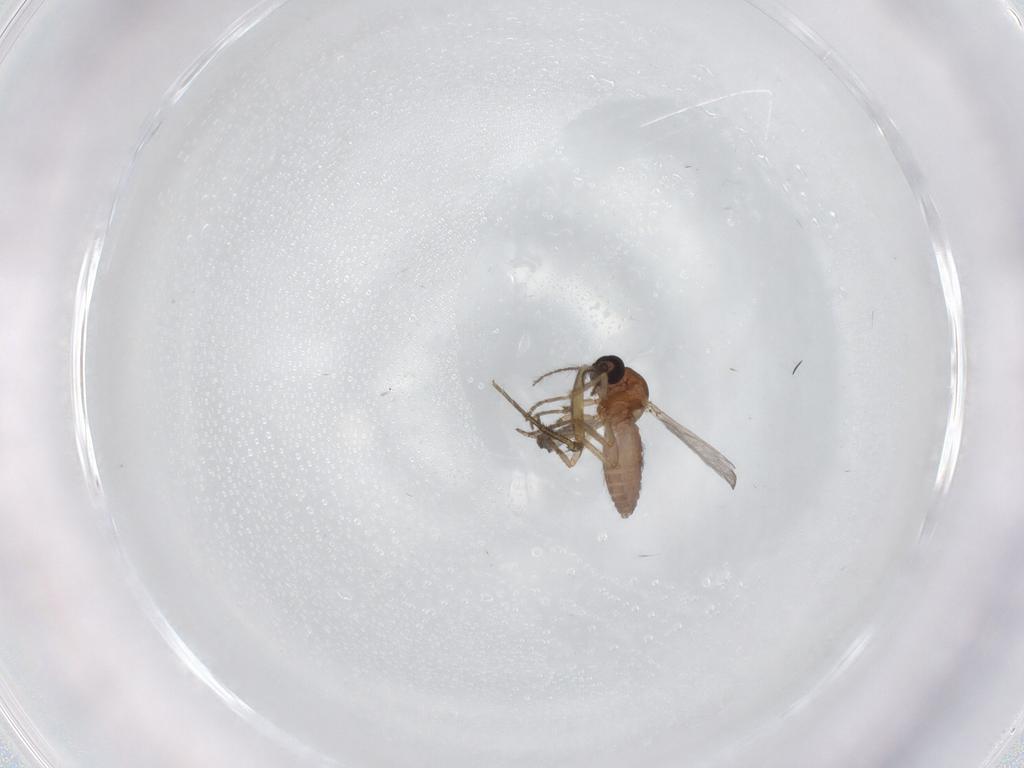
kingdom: Animalia
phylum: Arthropoda
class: Insecta
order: Diptera
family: Ceratopogonidae
